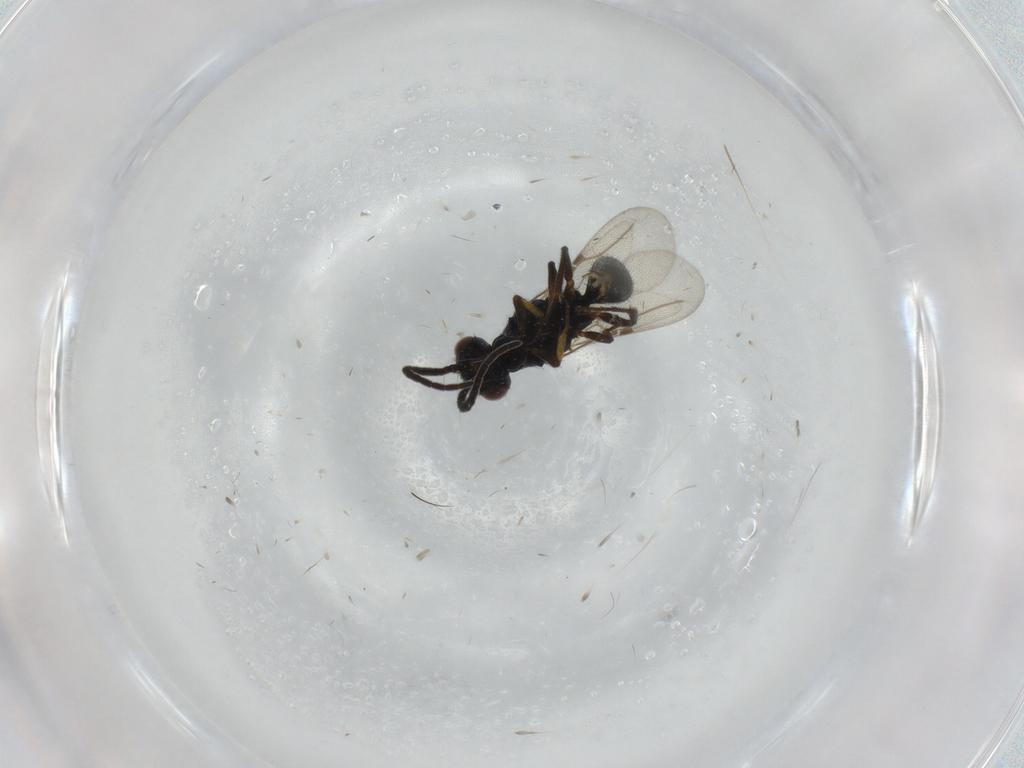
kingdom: Animalia
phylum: Arthropoda
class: Insecta
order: Hymenoptera
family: Bethylidae
